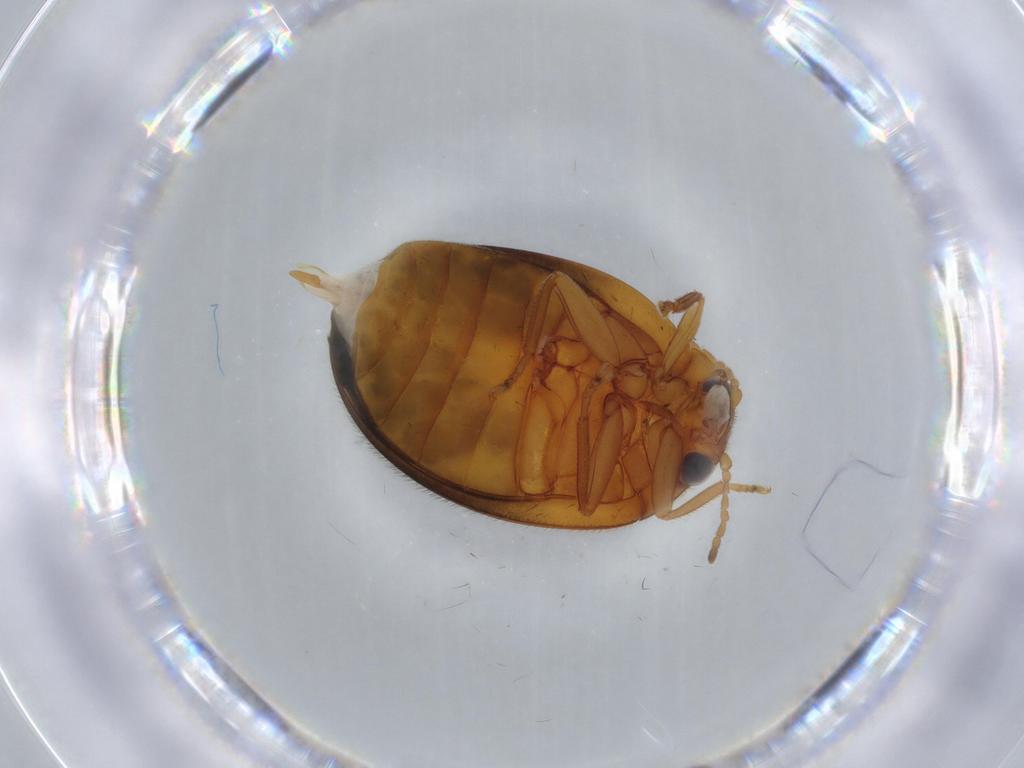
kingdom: Animalia
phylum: Arthropoda
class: Insecta
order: Coleoptera
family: Scirtidae
